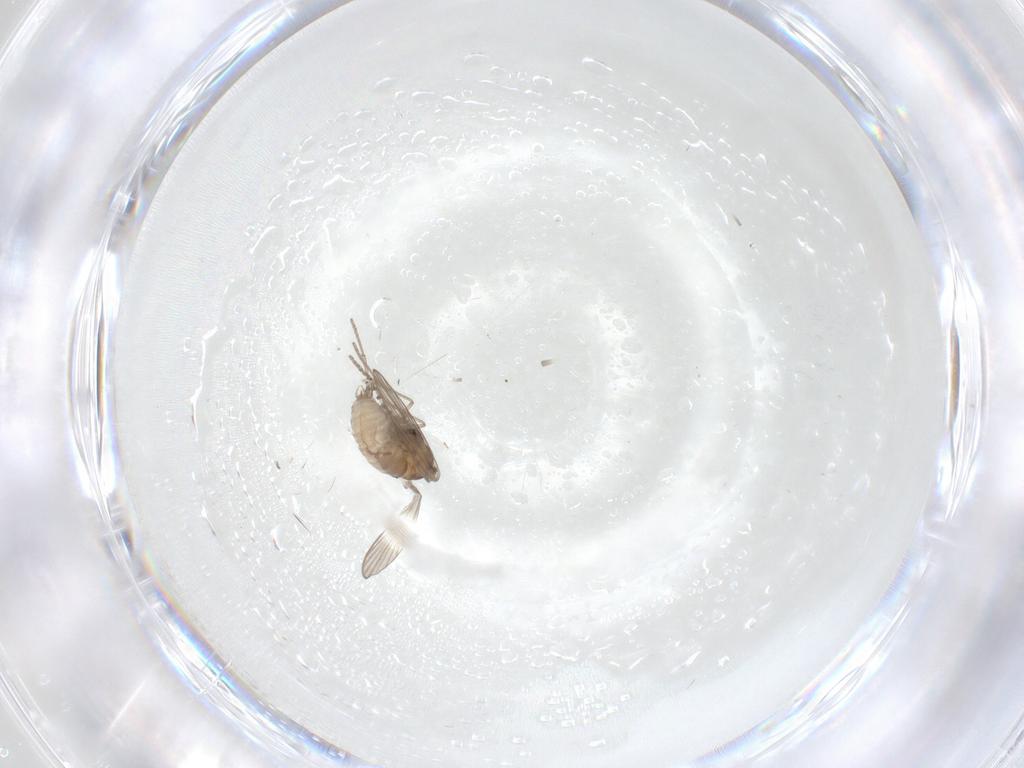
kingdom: Animalia
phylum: Arthropoda
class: Insecta
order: Diptera
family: Psychodidae
